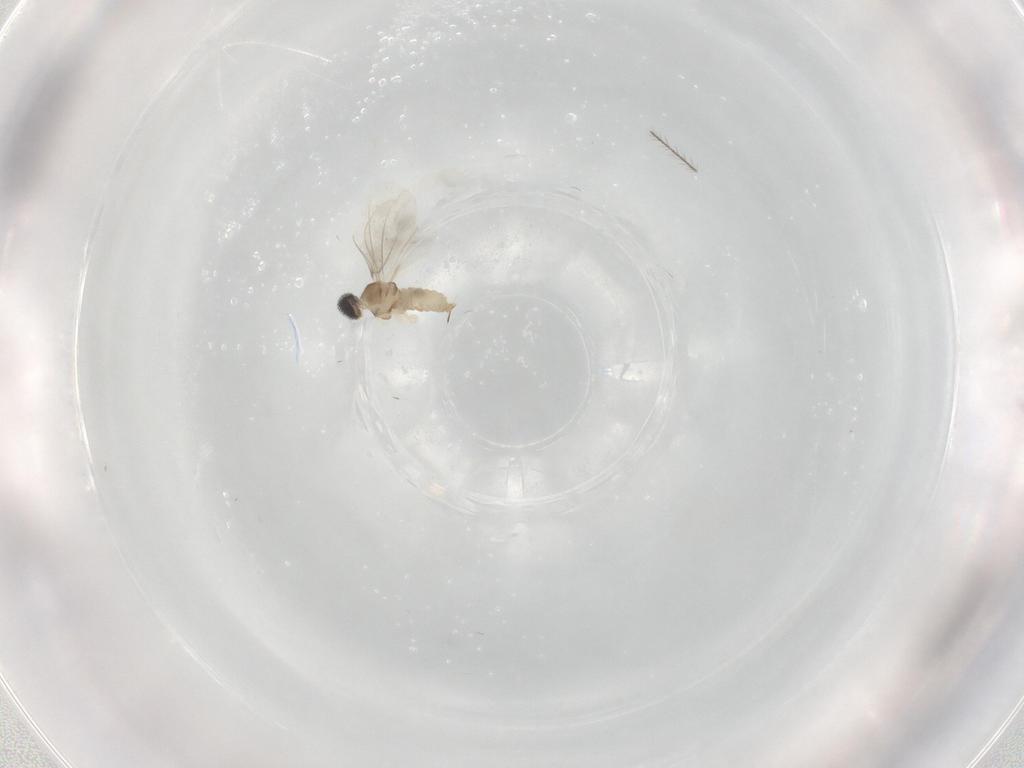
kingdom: Animalia
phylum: Arthropoda
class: Insecta
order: Diptera
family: Cecidomyiidae
